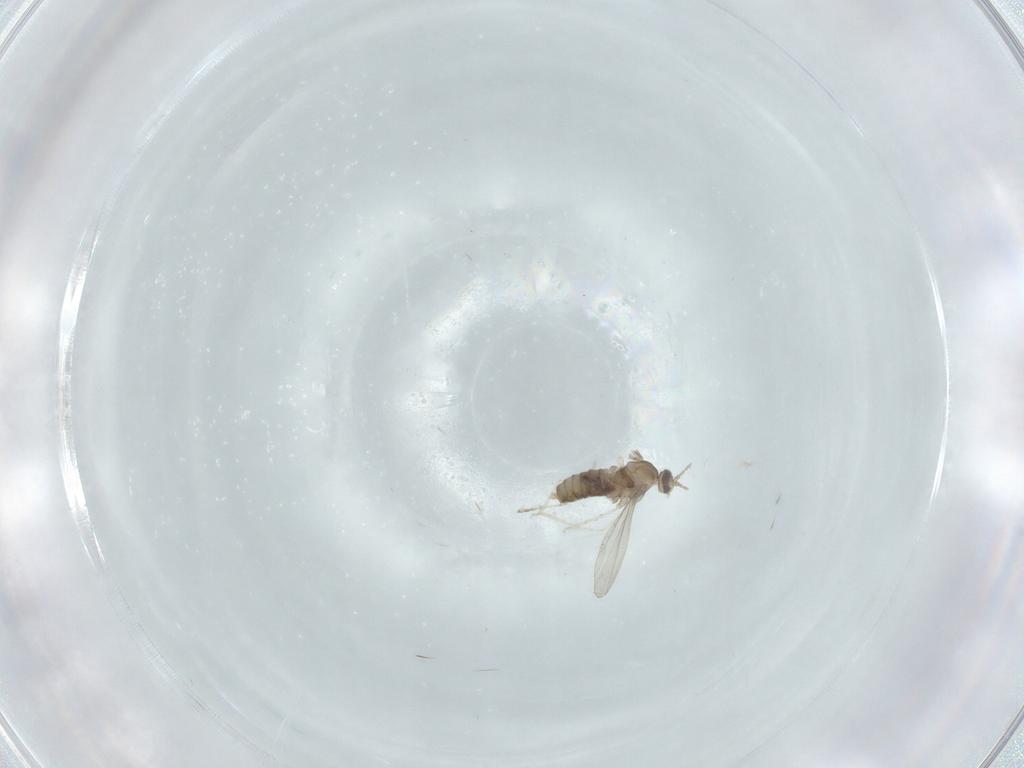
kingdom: Animalia
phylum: Arthropoda
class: Insecta
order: Diptera
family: Cecidomyiidae
